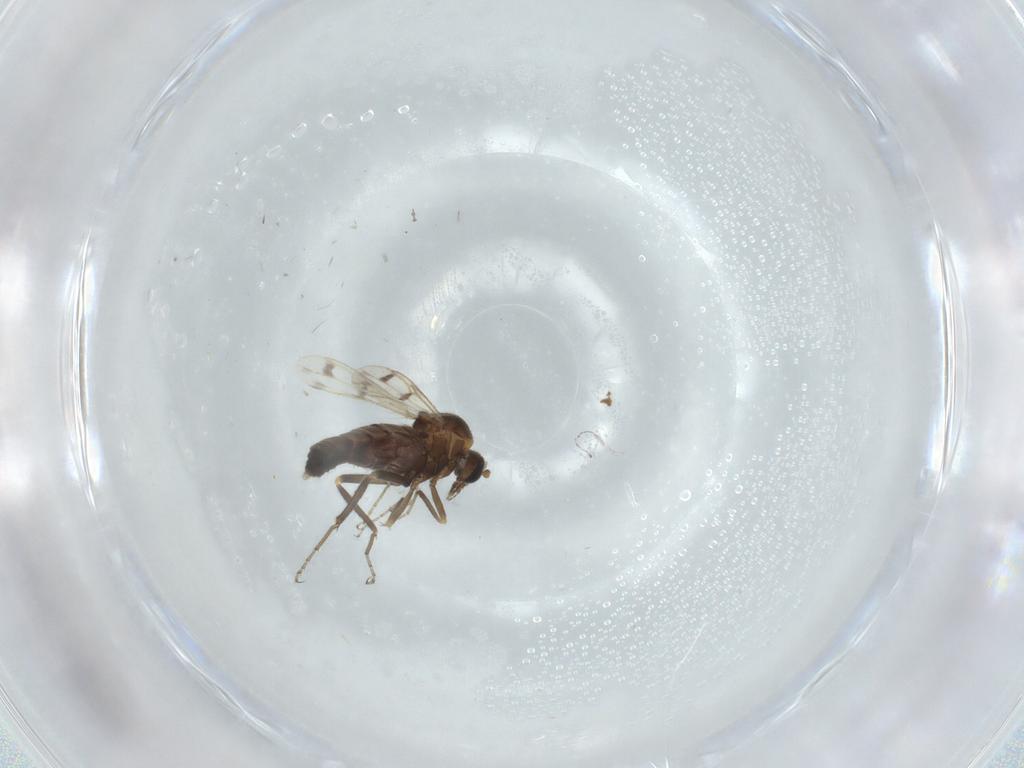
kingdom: Animalia
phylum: Arthropoda
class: Insecta
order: Diptera
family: Ceratopogonidae
